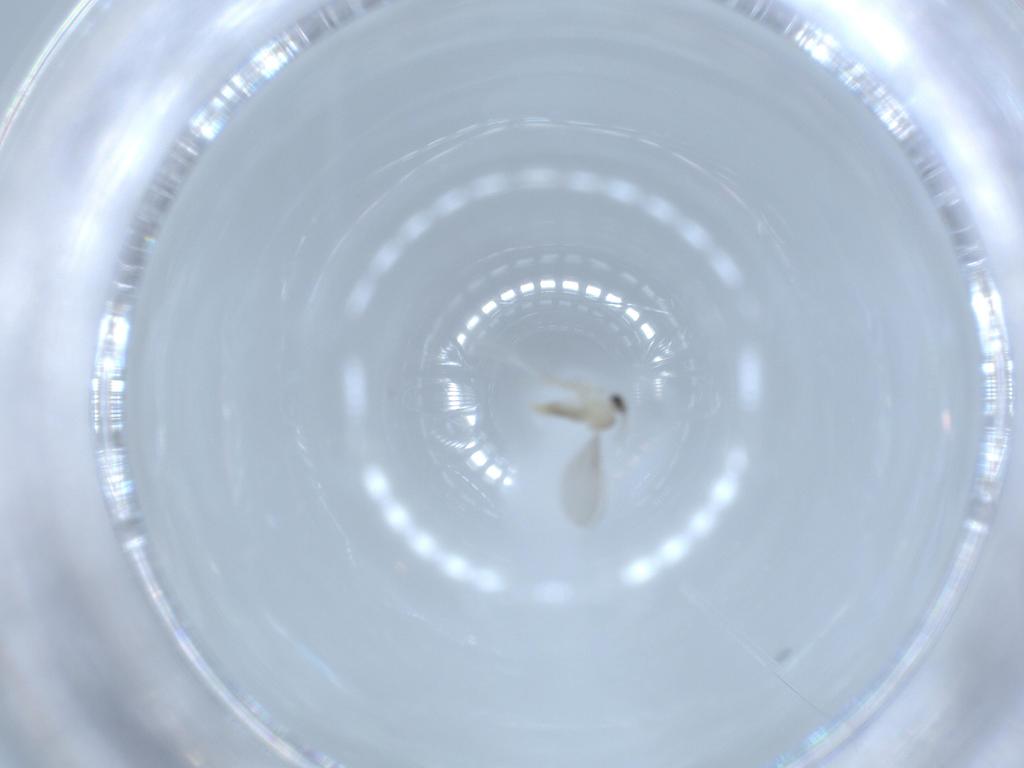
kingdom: Animalia
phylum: Arthropoda
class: Insecta
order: Diptera
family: Cecidomyiidae
